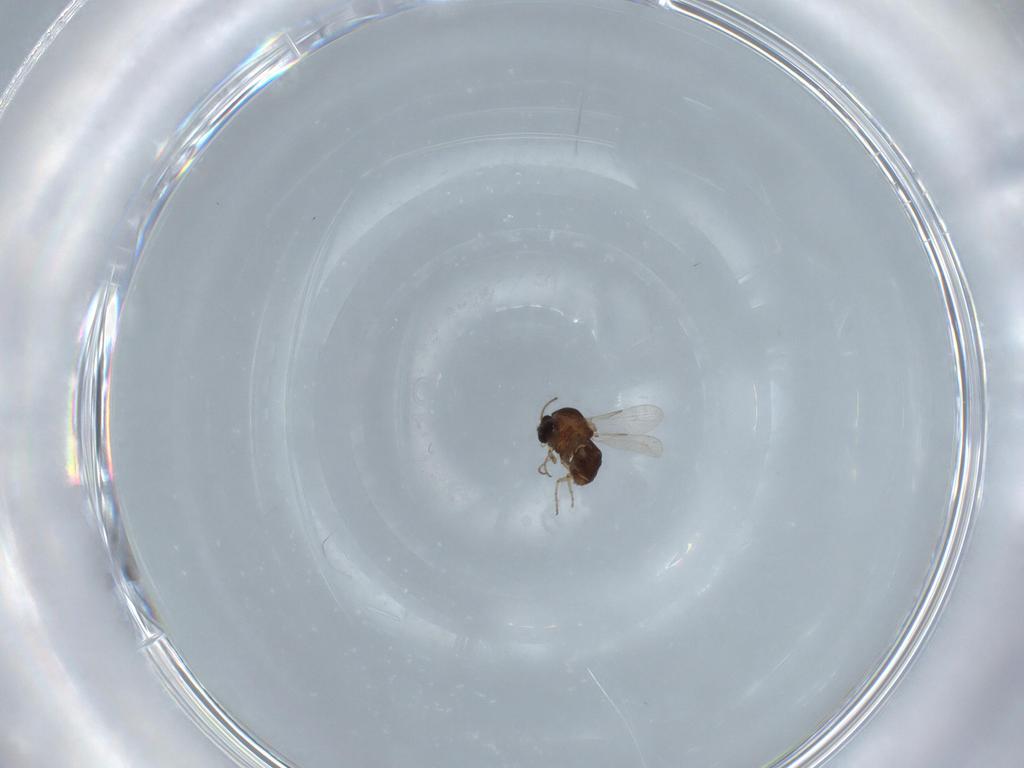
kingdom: Animalia
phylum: Arthropoda
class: Insecta
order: Diptera
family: Ceratopogonidae
